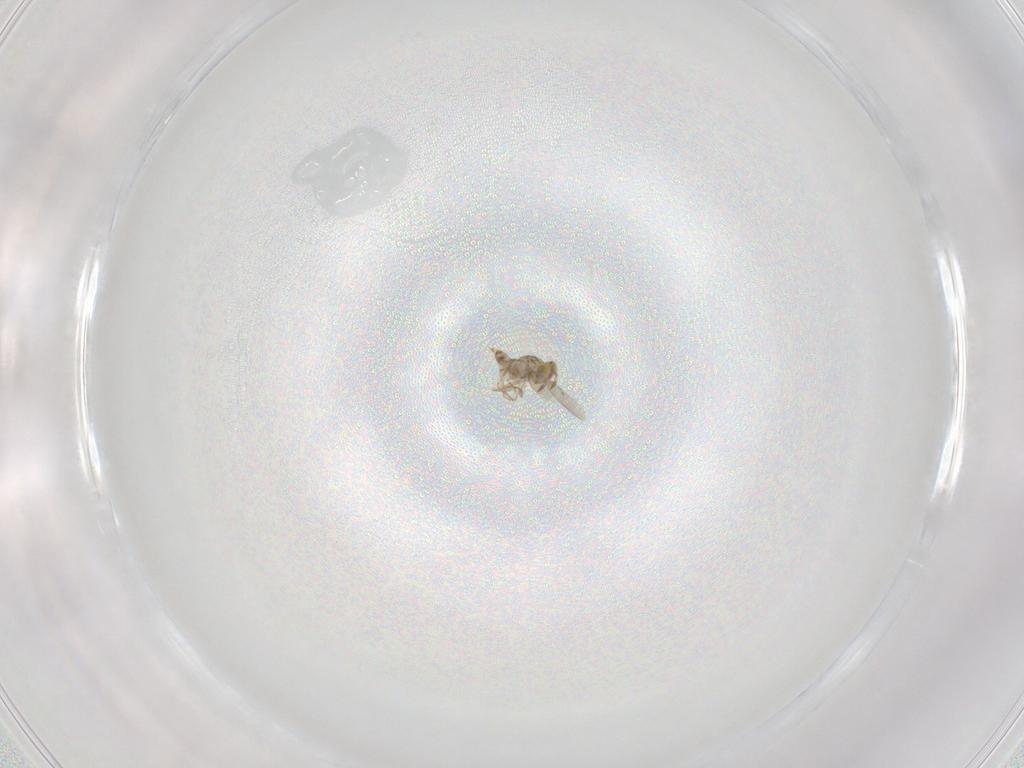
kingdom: Animalia
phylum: Arthropoda
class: Insecta
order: Hymenoptera
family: Aphelinidae
